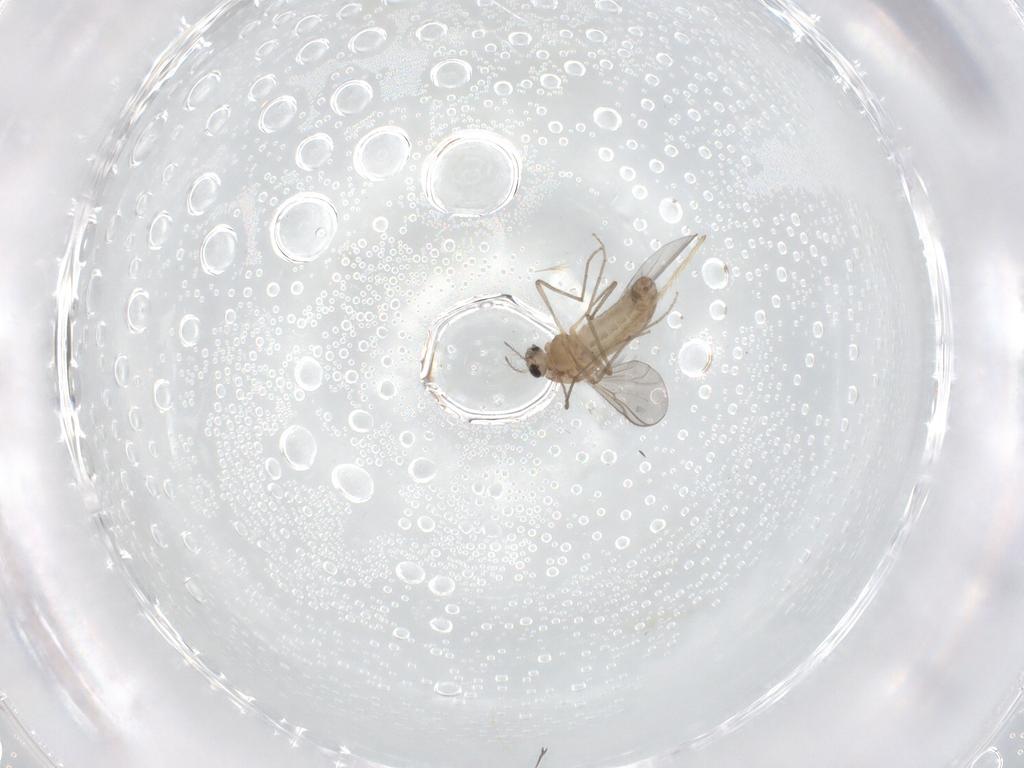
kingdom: Animalia
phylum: Arthropoda
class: Insecta
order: Diptera
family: Chironomidae
